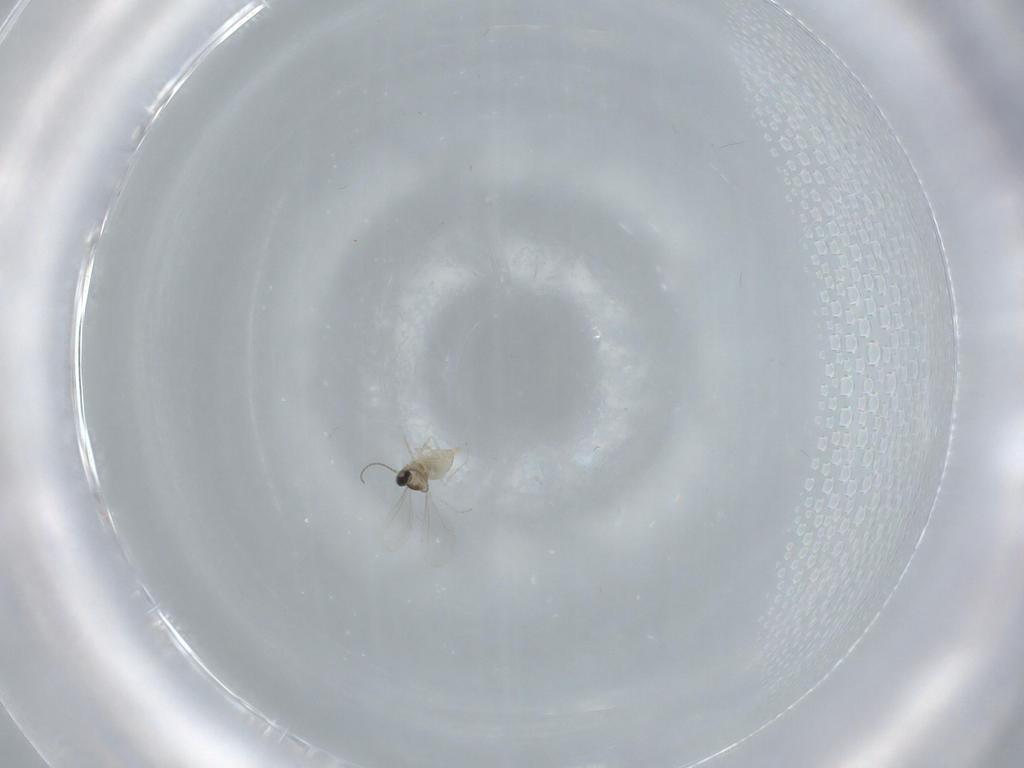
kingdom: Animalia
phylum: Arthropoda
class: Insecta
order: Diptera
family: Cecidomyiidae
